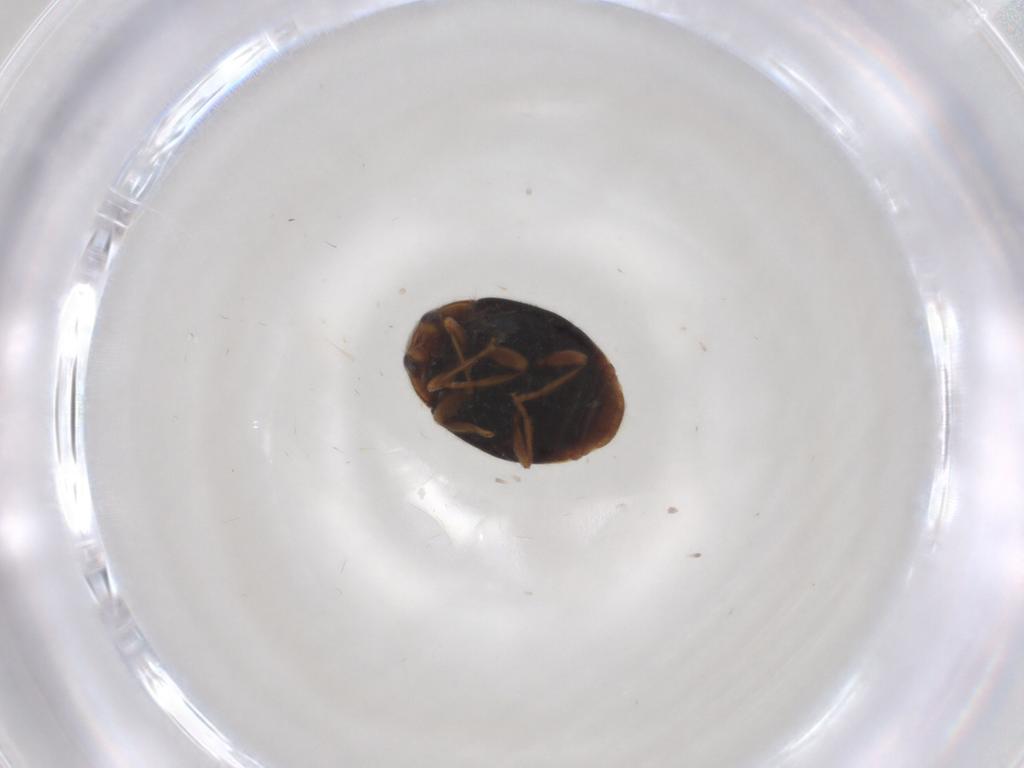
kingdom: Animalia
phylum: Arthropoda
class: Insecta
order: Coleoptera
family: Coccinellidae
